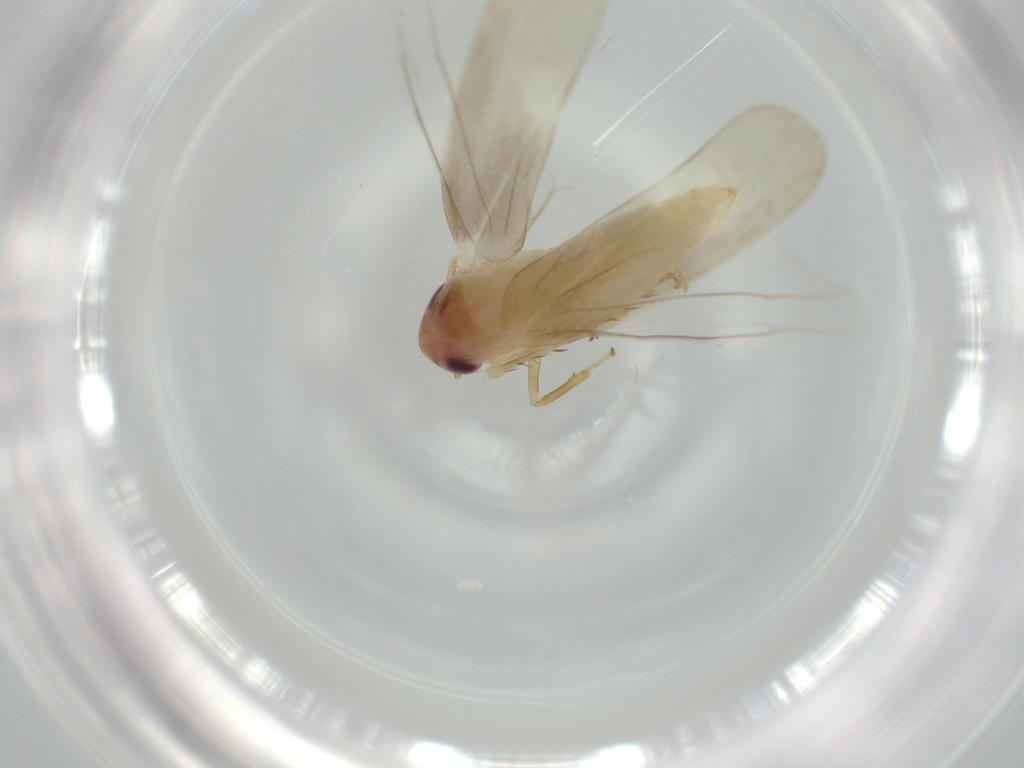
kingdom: Animalia
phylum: Arthropoda
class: Insecta
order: Hemiptera
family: Cicadellidae
